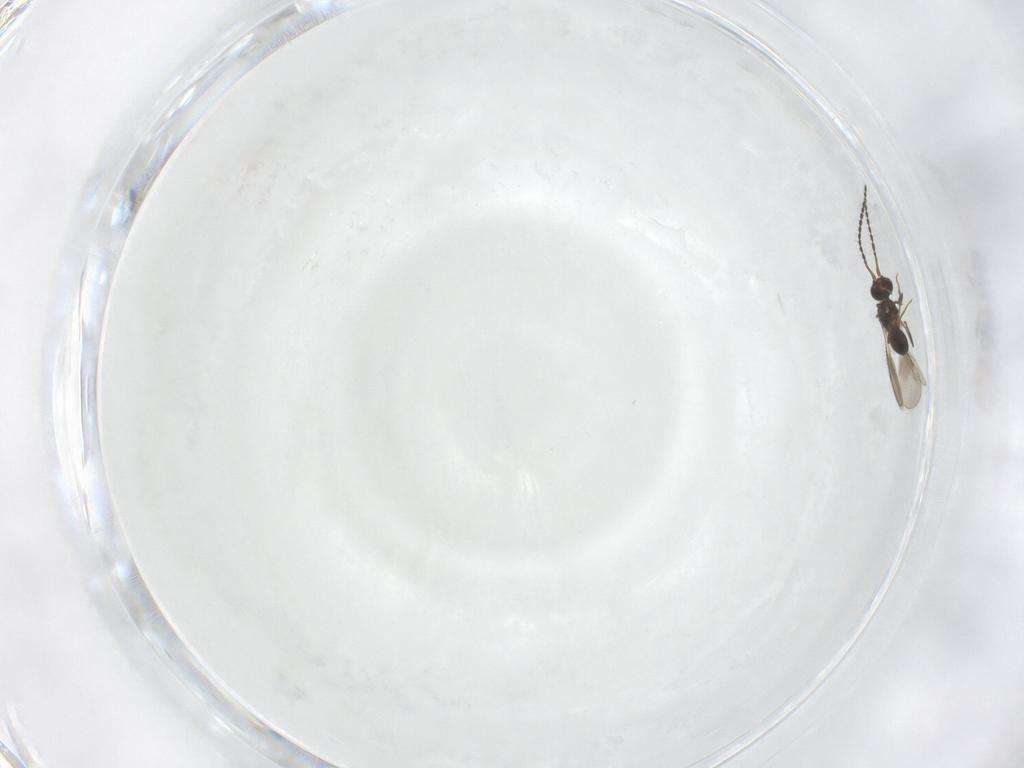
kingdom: Animalia
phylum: Arthropoda
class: Insecta
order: Hymenoptera
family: Ceraphronidae
